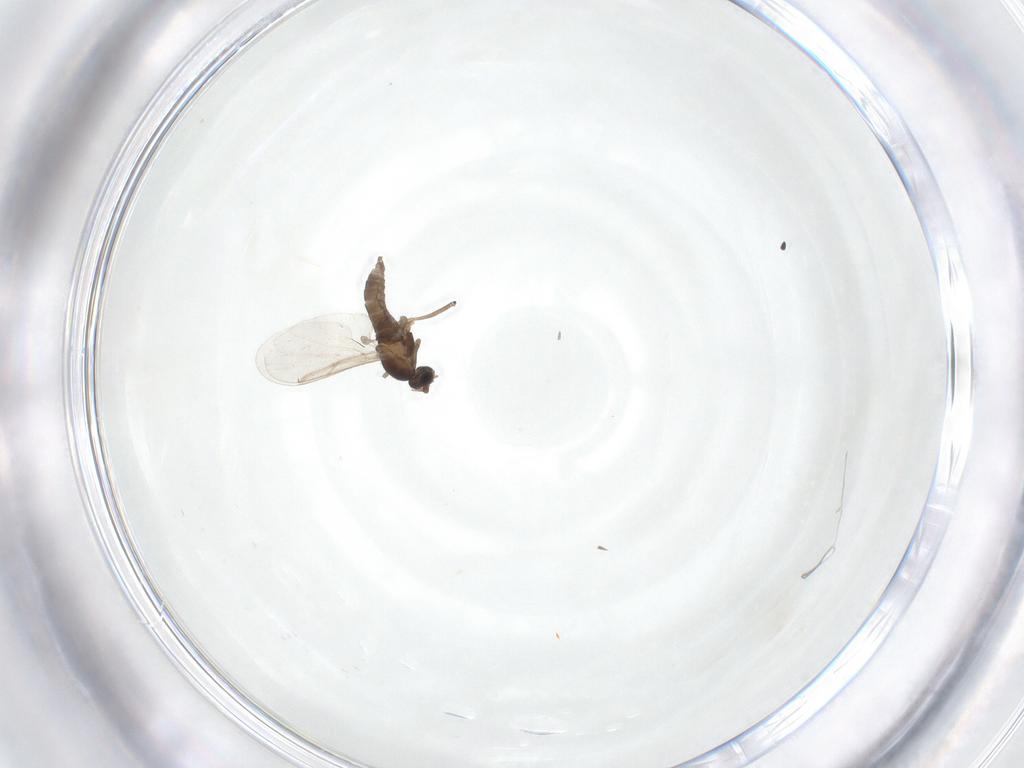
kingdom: Animalia
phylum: Arthropoda
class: Insecta
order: Diptera
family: Cecidomyiidae
